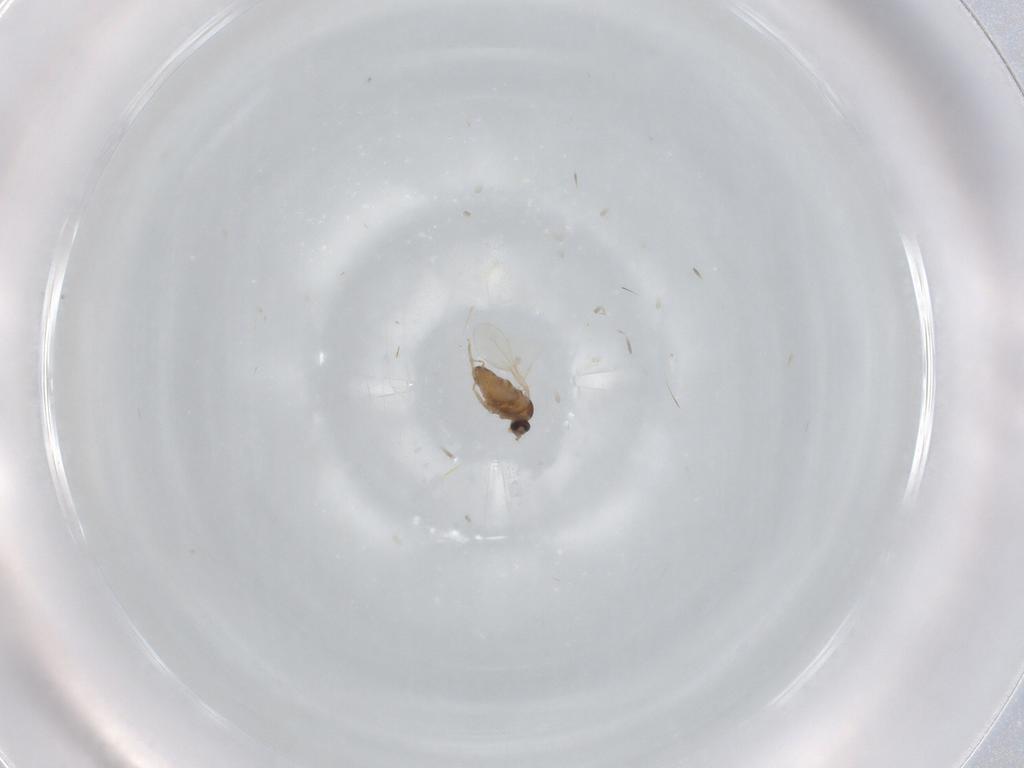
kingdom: Animalia
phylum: Arthropoda
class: Insecta
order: Diptera
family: Cecidomyiidae
